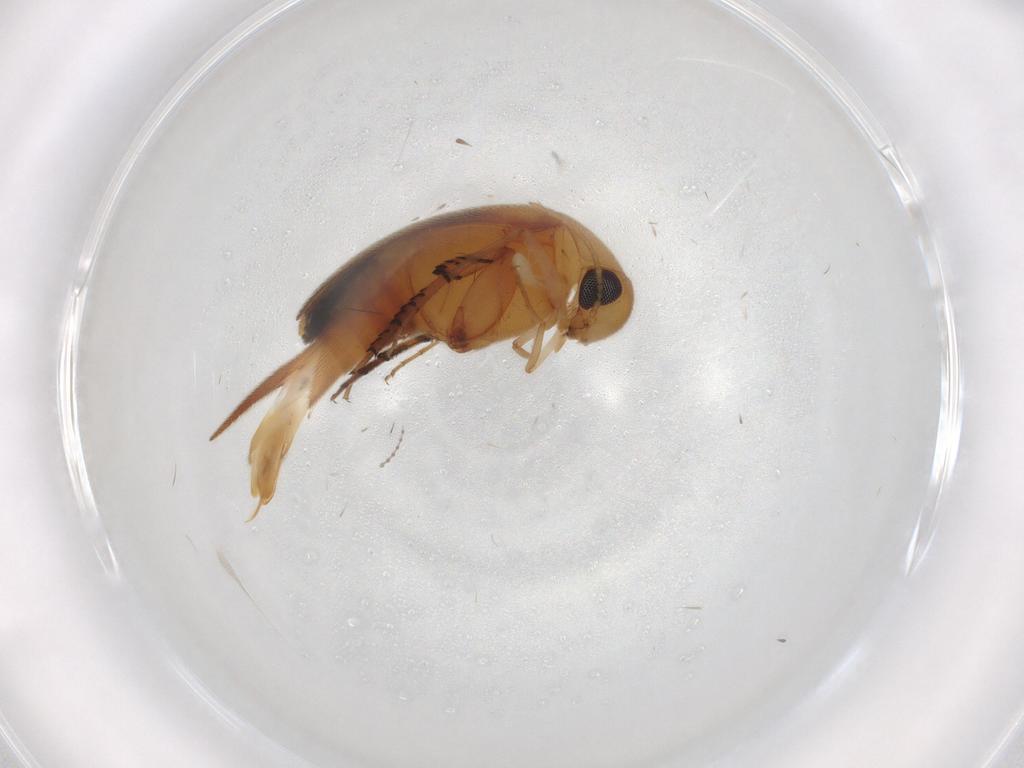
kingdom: Animalia
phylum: Arthropoda
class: Insecta
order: Coleoptera
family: Mordellidae
